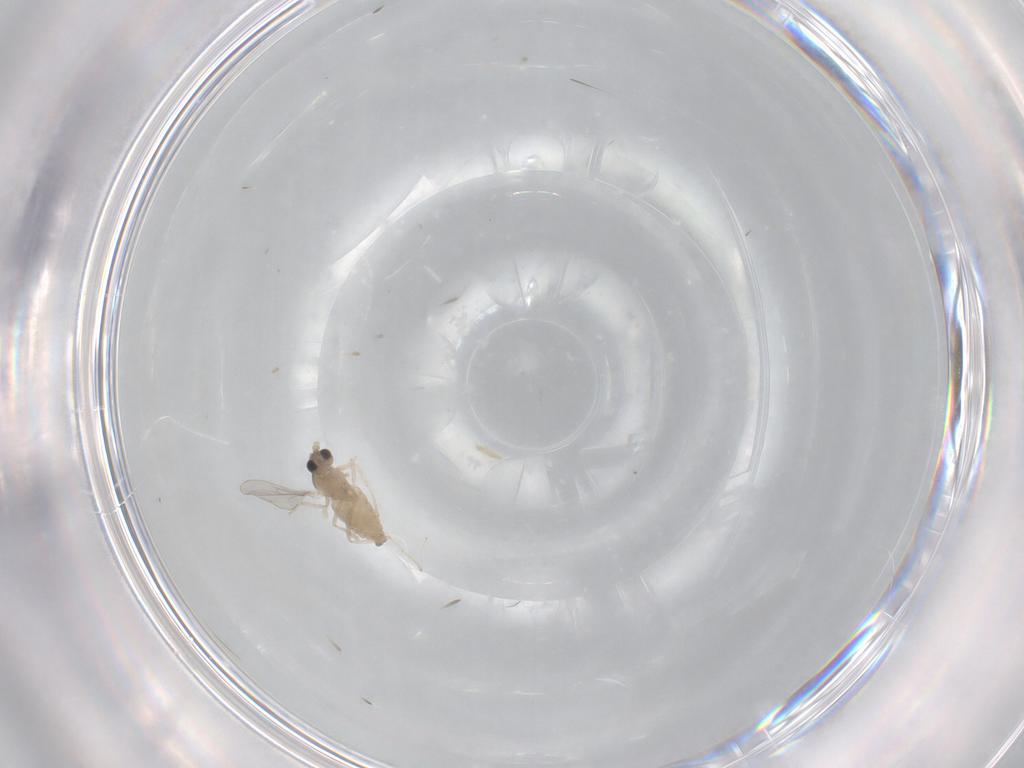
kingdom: Animalia
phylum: Arthropoda
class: Insecta
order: Diptera
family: Cecidomyiidae
